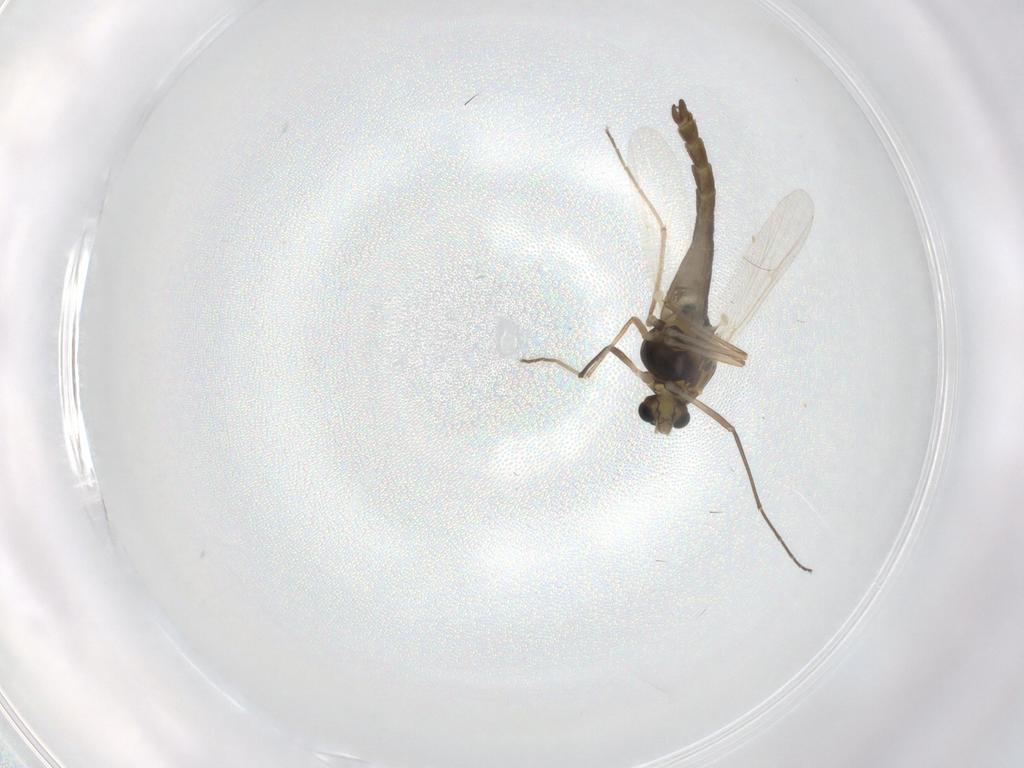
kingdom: Animalia
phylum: Arthropoda
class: Insecta
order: Diptera
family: Chironomidae
